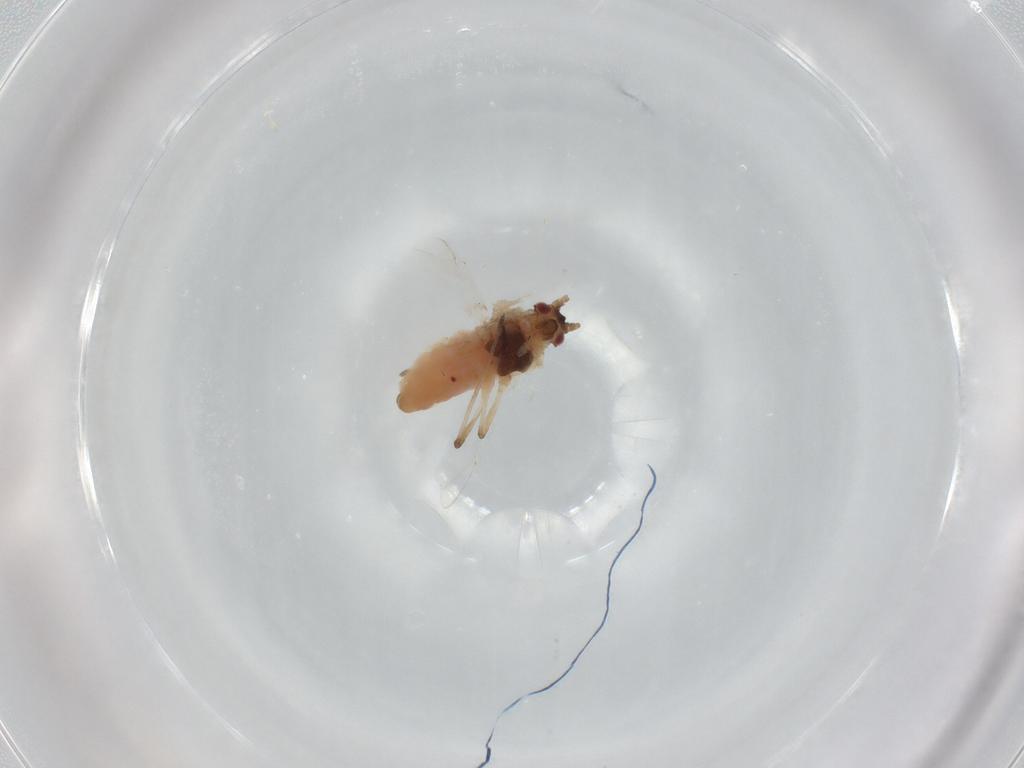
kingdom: Animalia
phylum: Arthropoda
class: Insecta
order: Hemiptera
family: Aphididae
